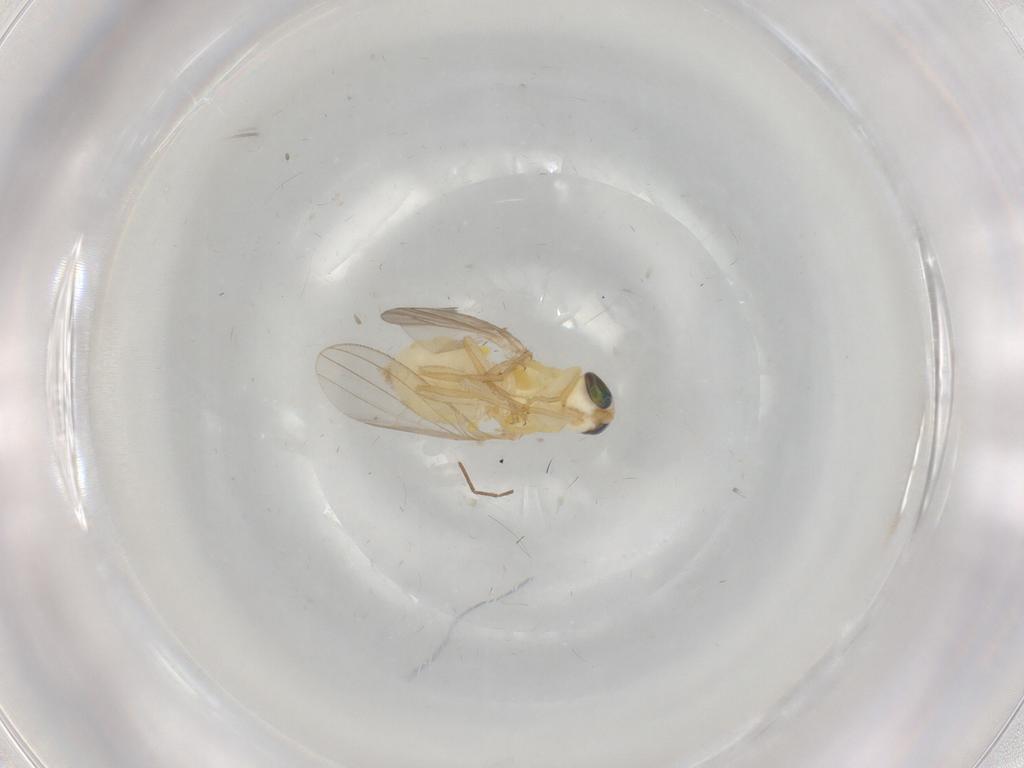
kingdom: Animalia
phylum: Arthropoda
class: Insecta
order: Diptera
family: Chyromyidae
